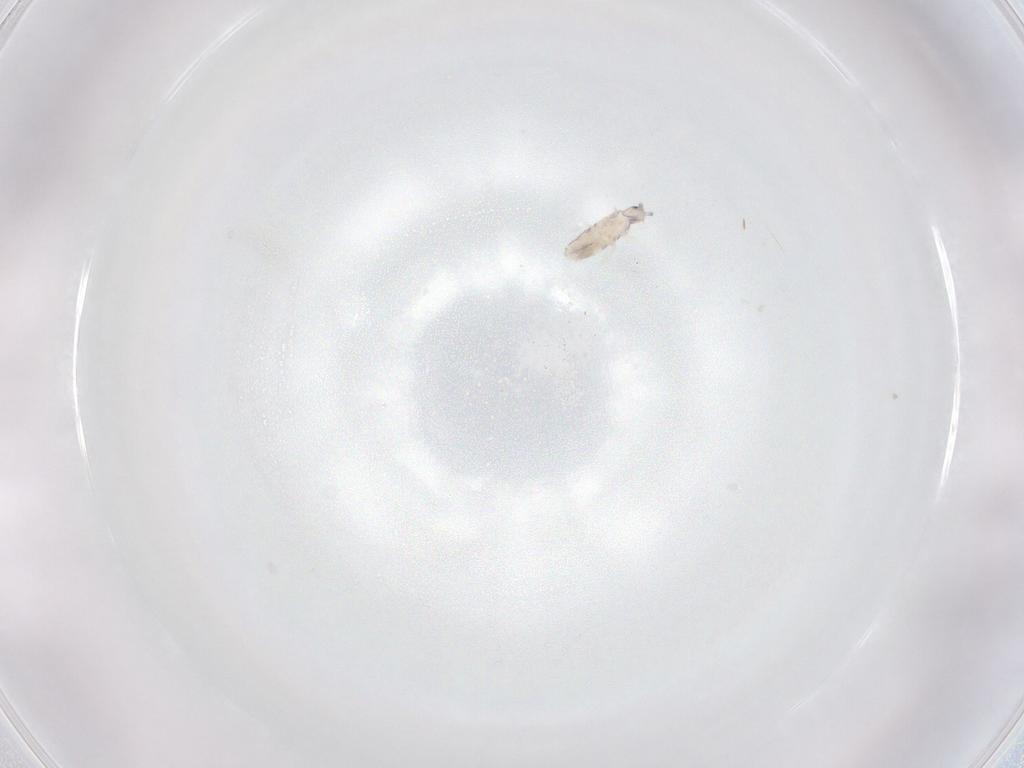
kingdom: Animalia
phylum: Arthropoda
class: Collembola
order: Entomobryomorpha
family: Entomobryidae
